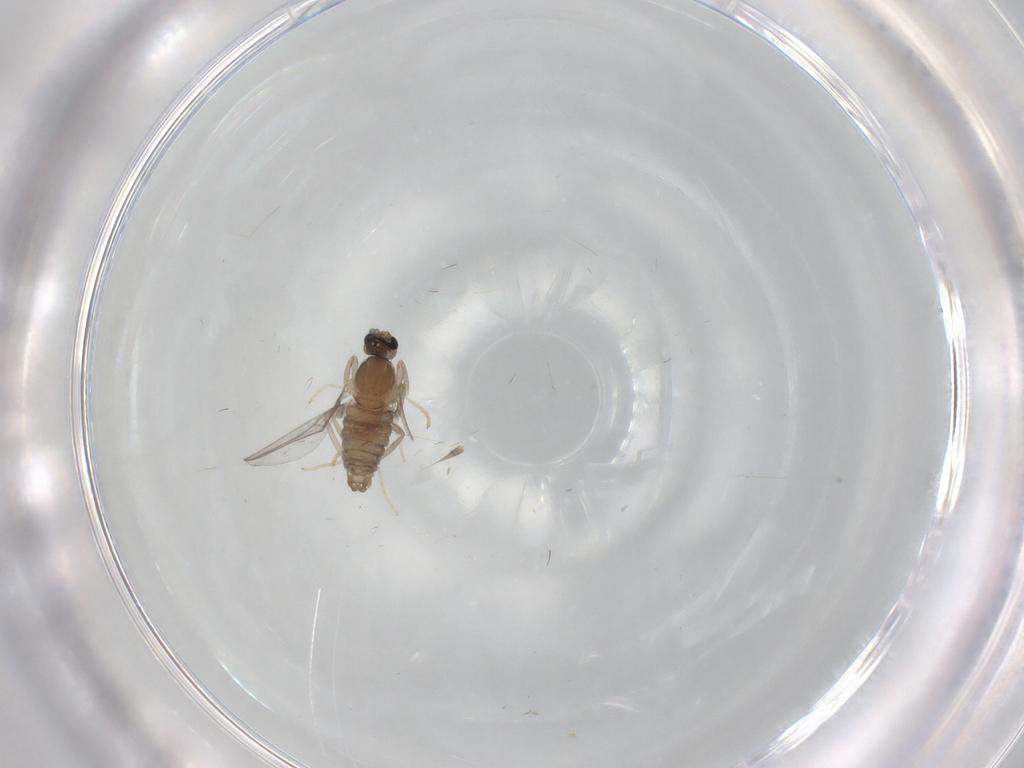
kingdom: Animalia
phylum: Arthropoda
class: Insecta
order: Diptera
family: Cecidomyiidae
